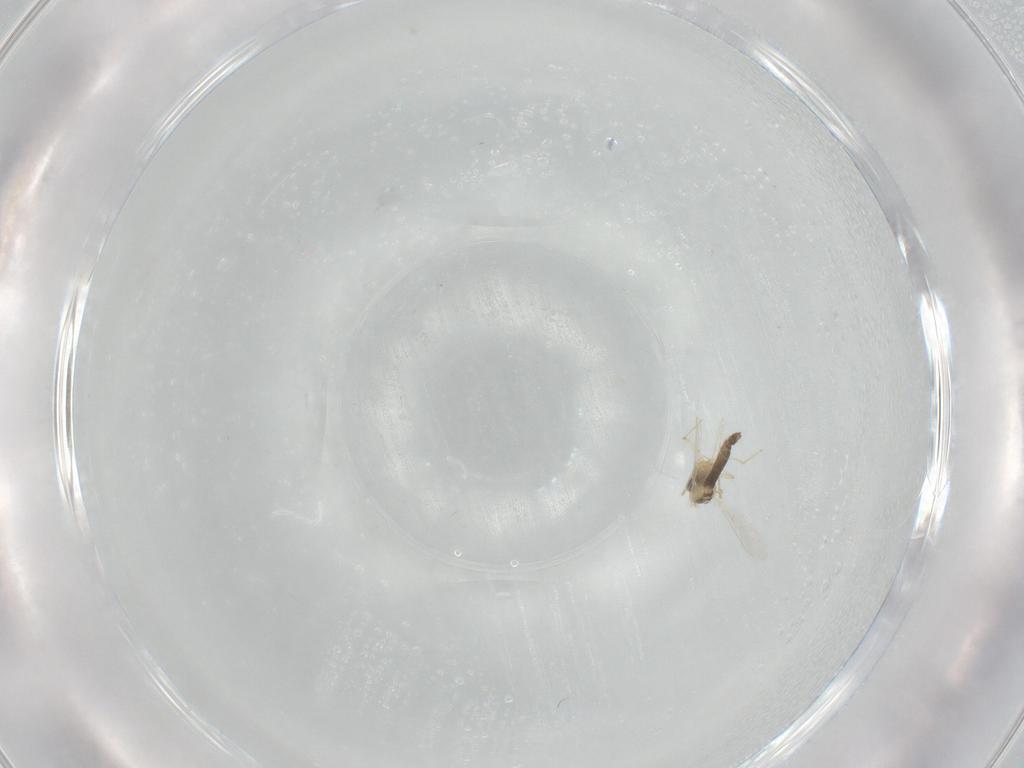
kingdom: Animalia
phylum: Arthropoda
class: Insecta
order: Diptera
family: Chironomidae
